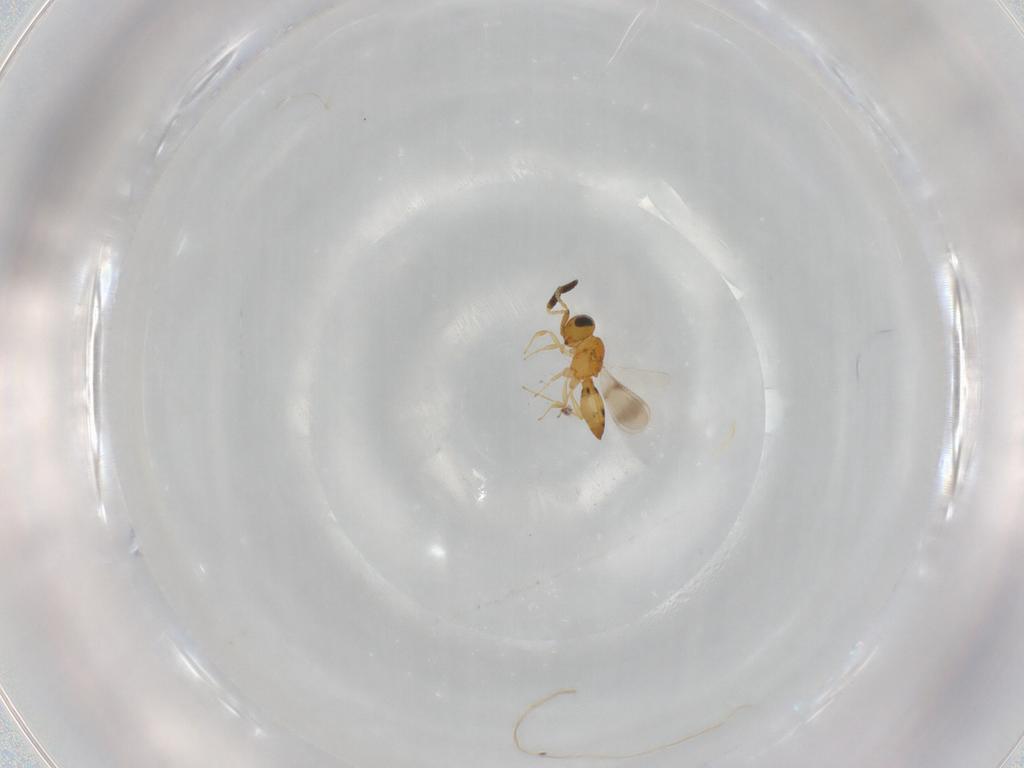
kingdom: Animalia
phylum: Arthropoda
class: Insecta
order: Hymenoptera
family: Scelionidae
